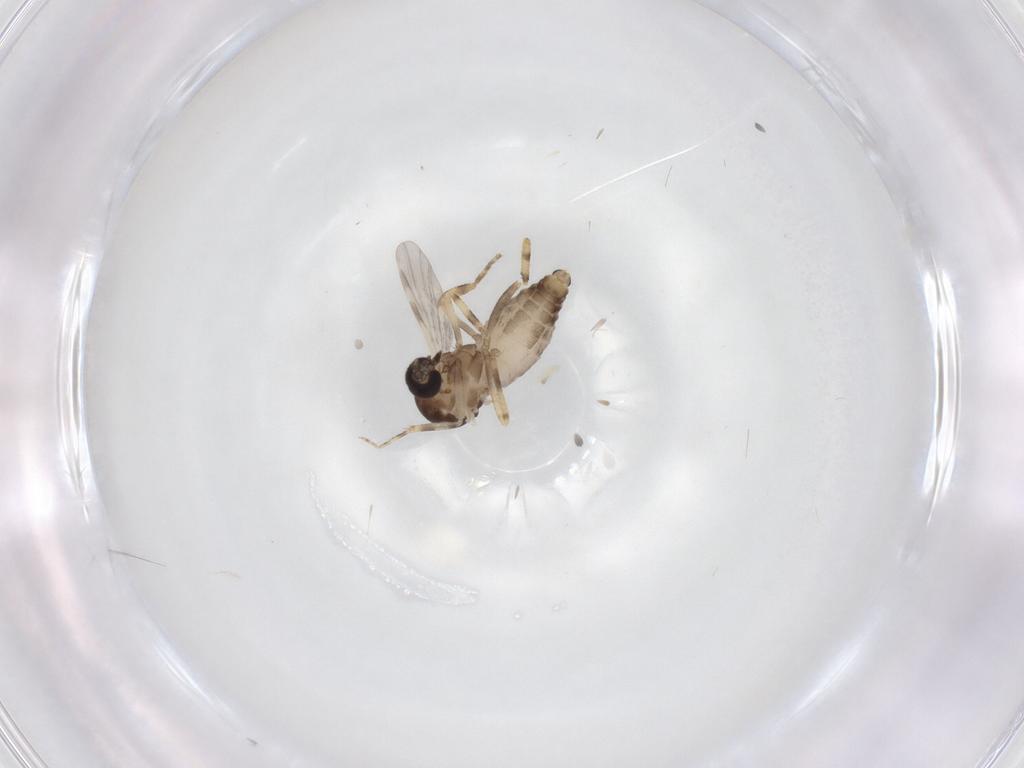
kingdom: Animalia
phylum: Arthropoda
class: Insecta
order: Diptera
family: Ceratopogonidae
